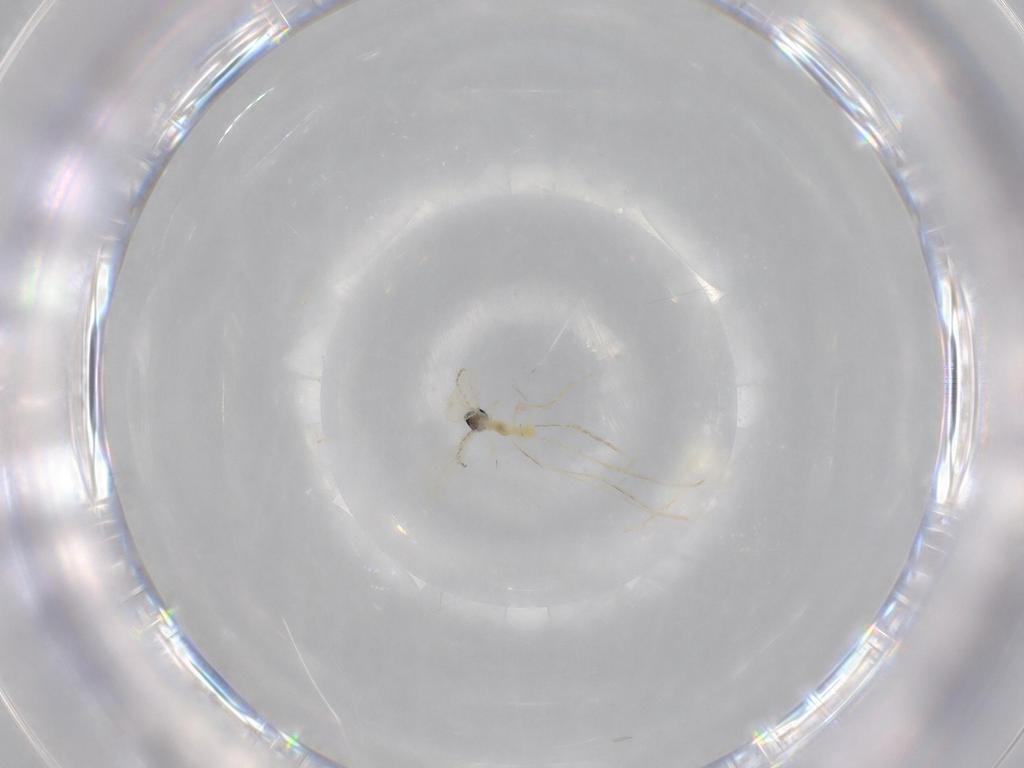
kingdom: Animalia
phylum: Arthropoda
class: Insecta
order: Diptera
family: Cecidomyiidae
